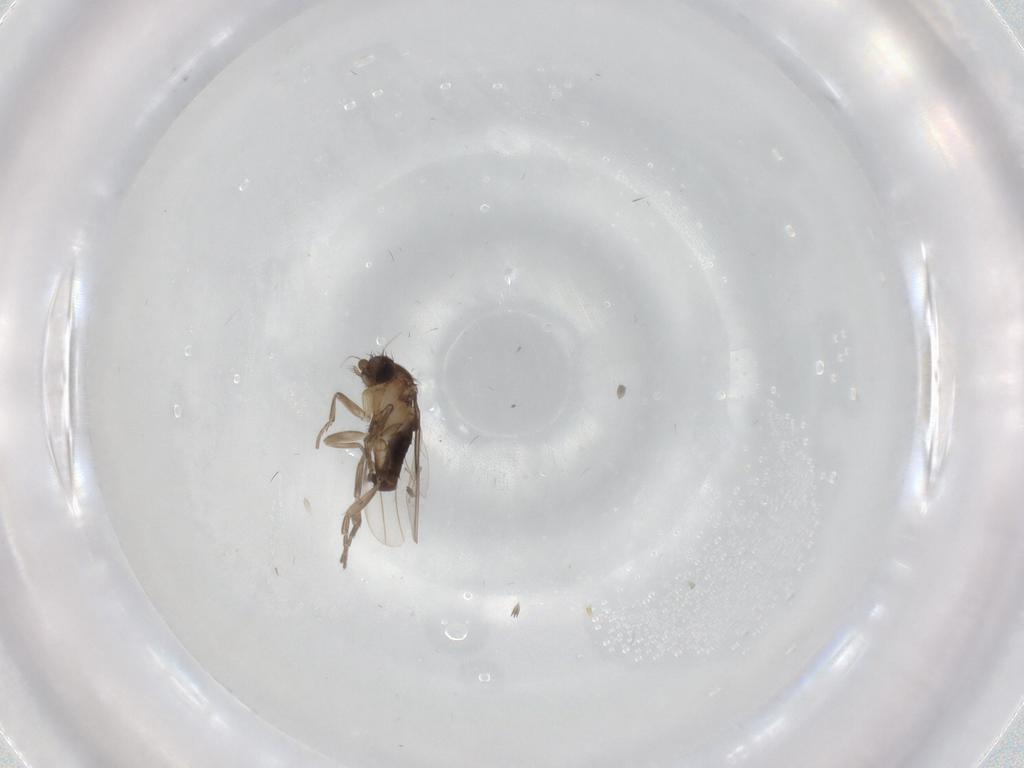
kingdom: Animalia
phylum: Arthropoda
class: Insecta
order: Diptera
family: Phoridae
